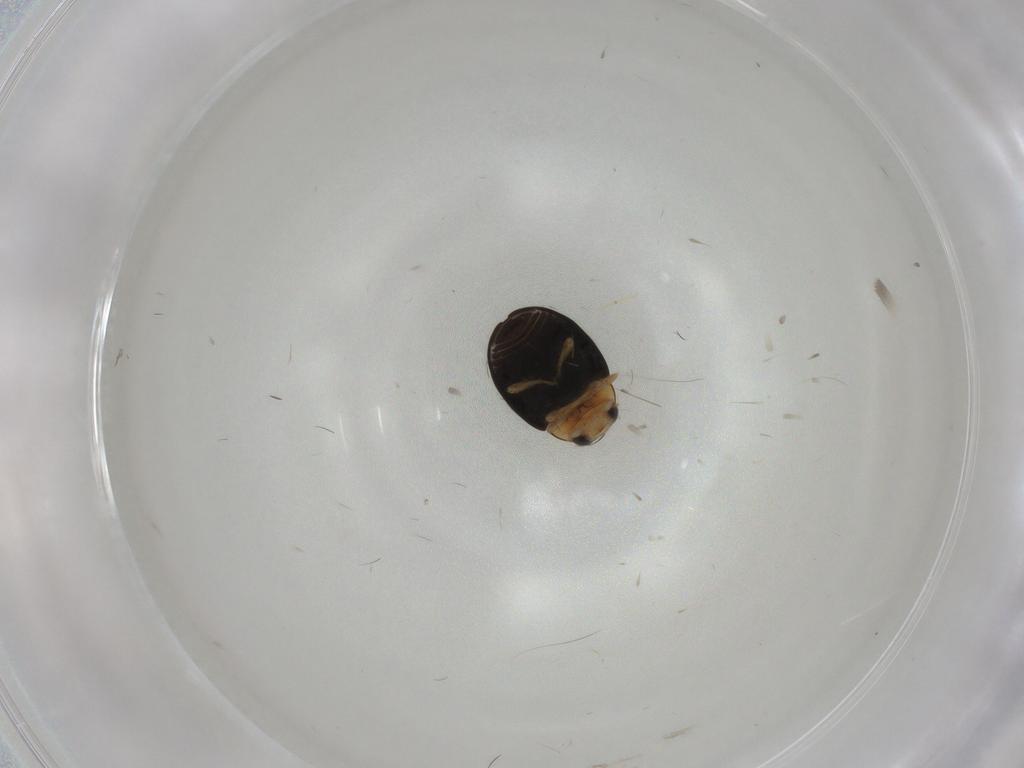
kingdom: Animalia
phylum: Arthropoda
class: Insecta
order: Coleoptera
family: Coccinellidae
